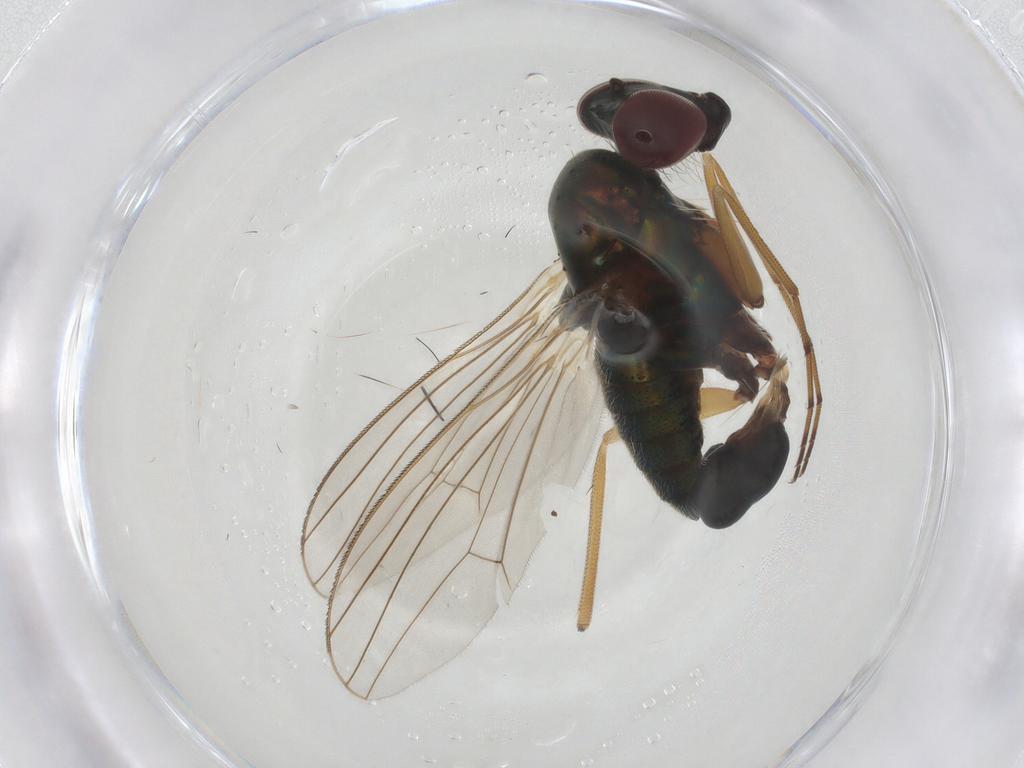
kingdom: Animalia
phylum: Arthropoda
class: Insecta
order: Diptera
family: Dolichopodidae
